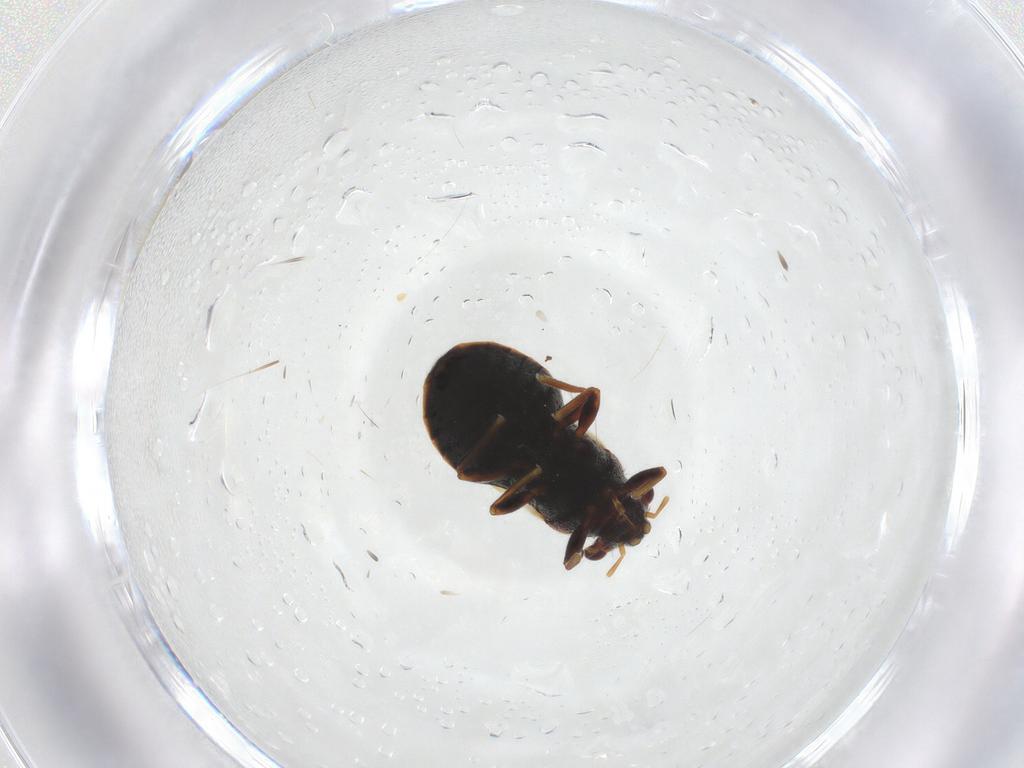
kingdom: Animalia
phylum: Arthropoda
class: Insecta
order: Hemiptera
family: Thaumastocoridae
